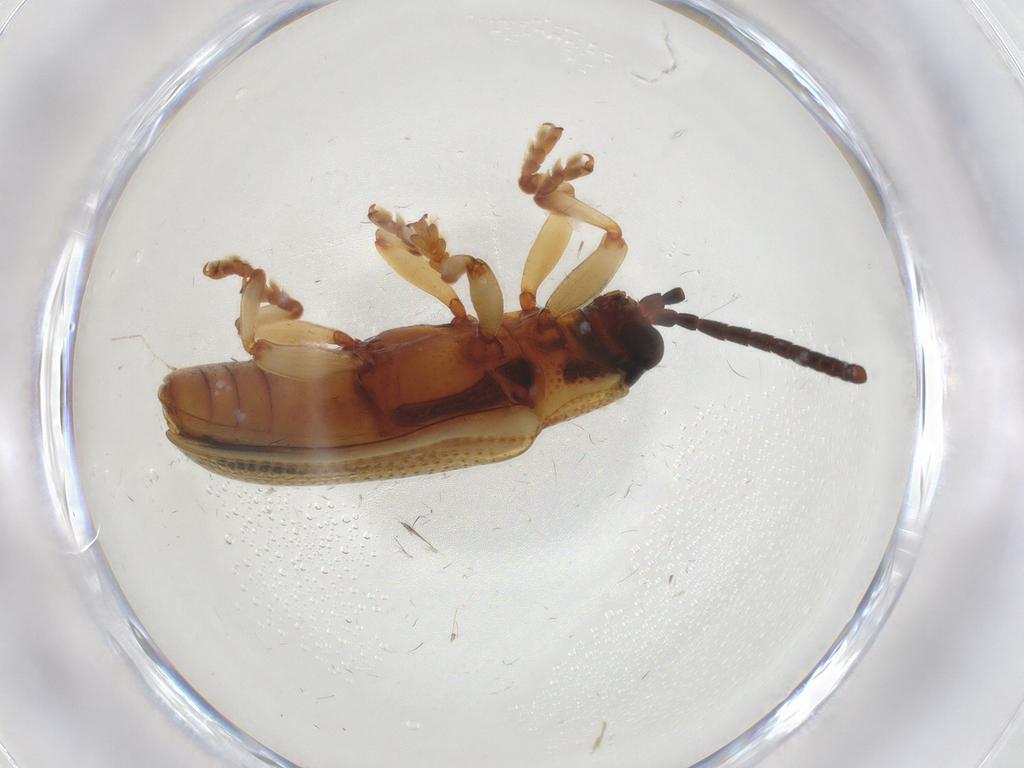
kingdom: Animalia
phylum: Arthropoda
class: Insecta
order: Coleoptera
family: Chrysomelidae
